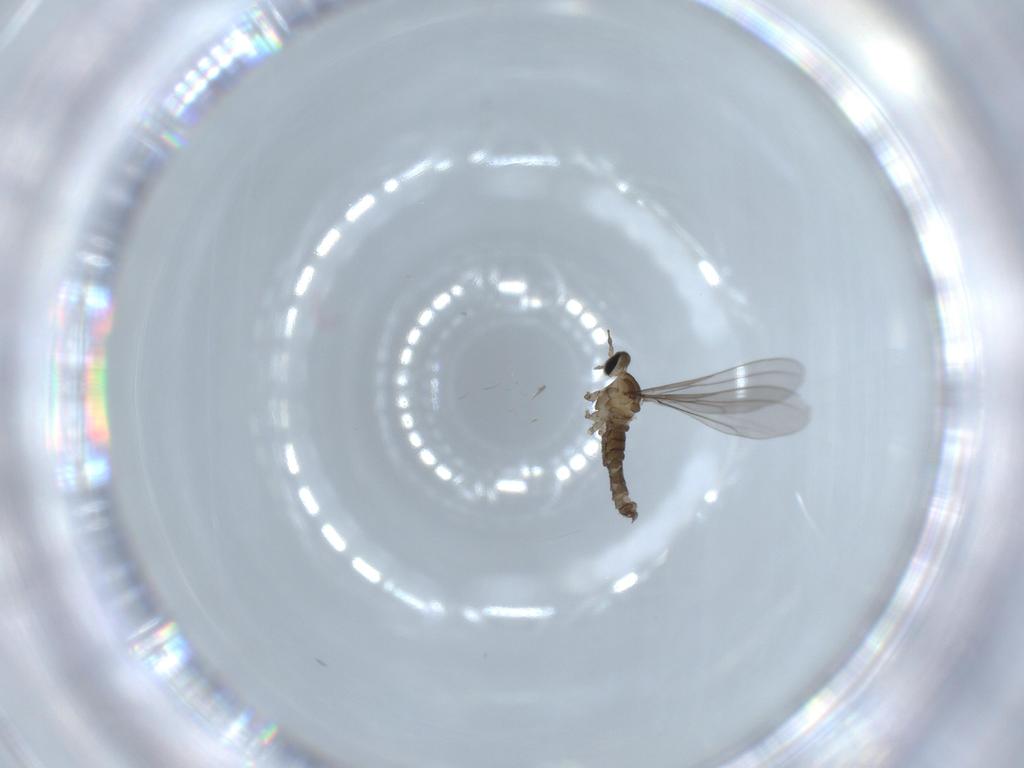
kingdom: Animalia
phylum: Arthropoda
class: Insecta
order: Diptera
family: Cecidomyiidae
